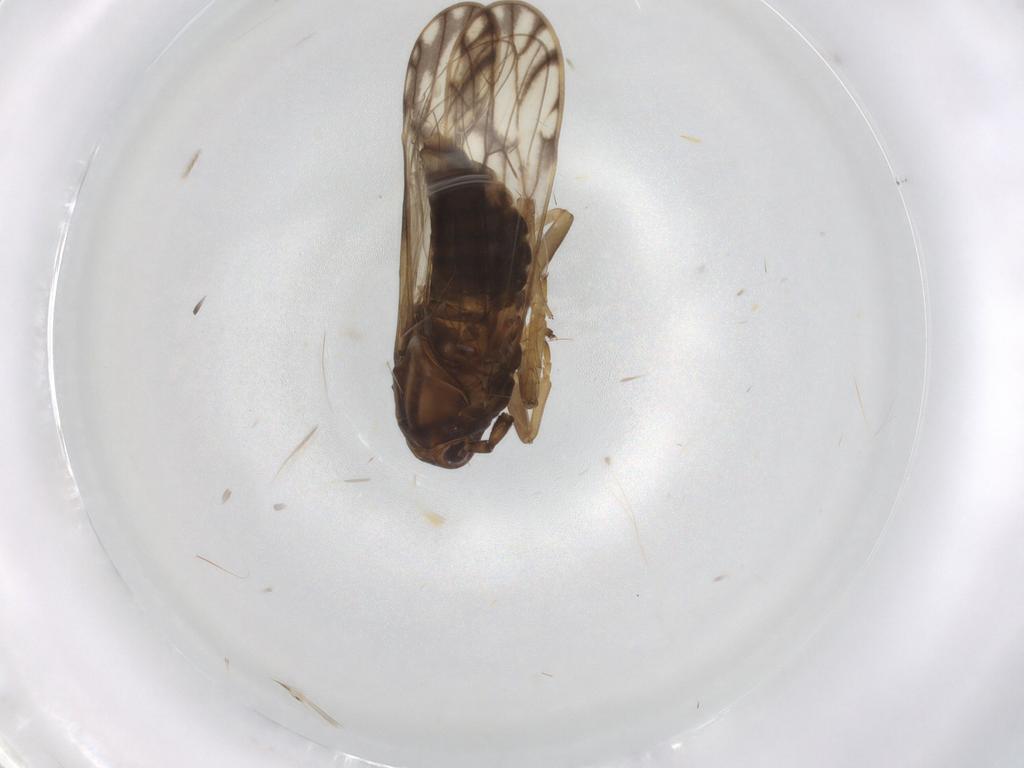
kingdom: Animalia
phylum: Arthropoda
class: Insecta
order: Hemiptera
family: Delphacidae
